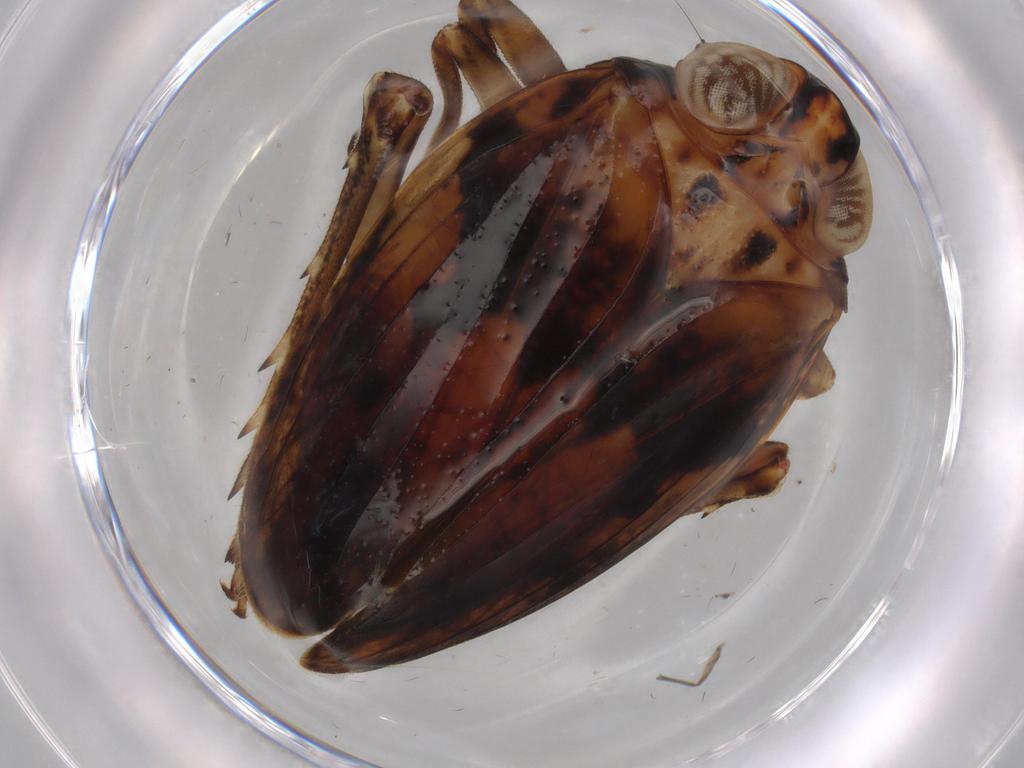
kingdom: Animalia
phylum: Arthropoda
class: Insecta
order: Hemiptera
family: Issidae
